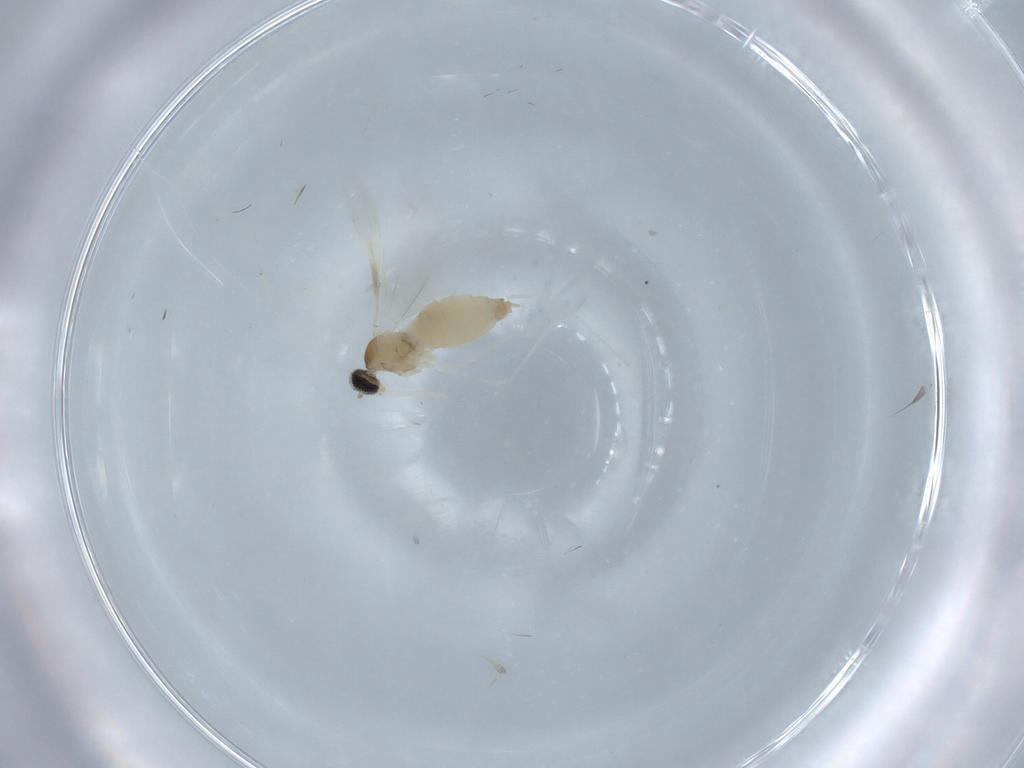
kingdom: Animalia
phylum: Arthropoda
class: Insecta
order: Diptera
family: Cecidomyiidae
